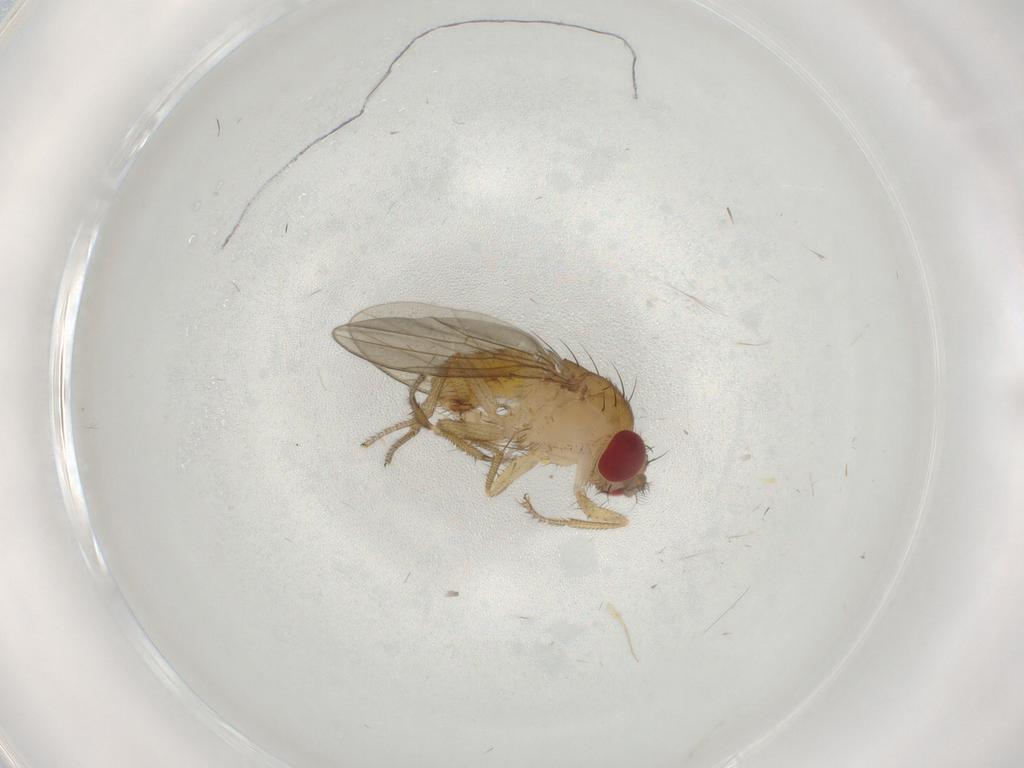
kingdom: Animalia
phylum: Arthropoda
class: Insecta
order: Diptera
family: Drosophilidae
